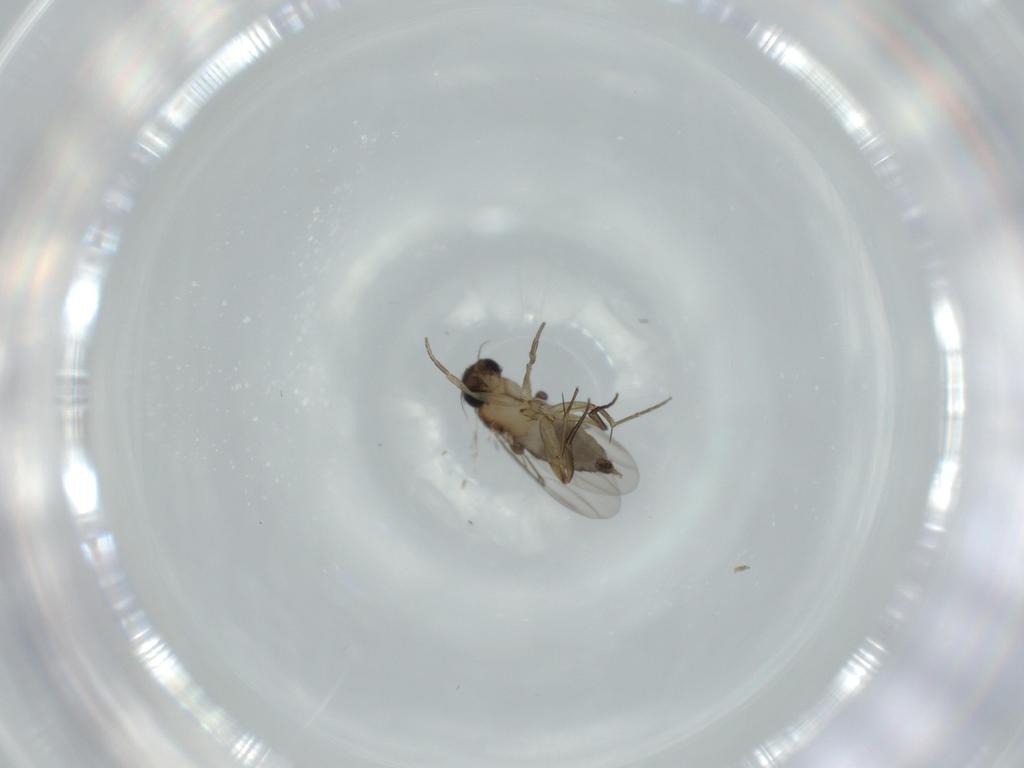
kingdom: Animalia
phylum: Arthropoda
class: Insecta
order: Diptera
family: Phoridae
